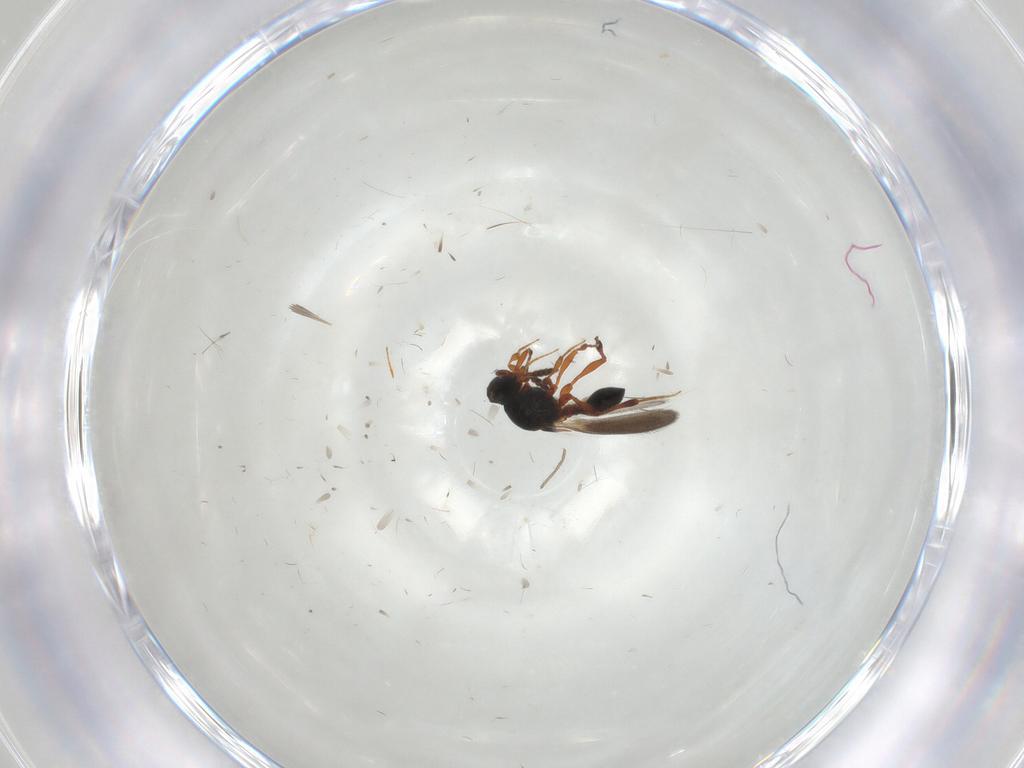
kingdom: Animalia
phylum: Arthropoda
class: Insecta
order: Hymenoptera
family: Platygastridae
